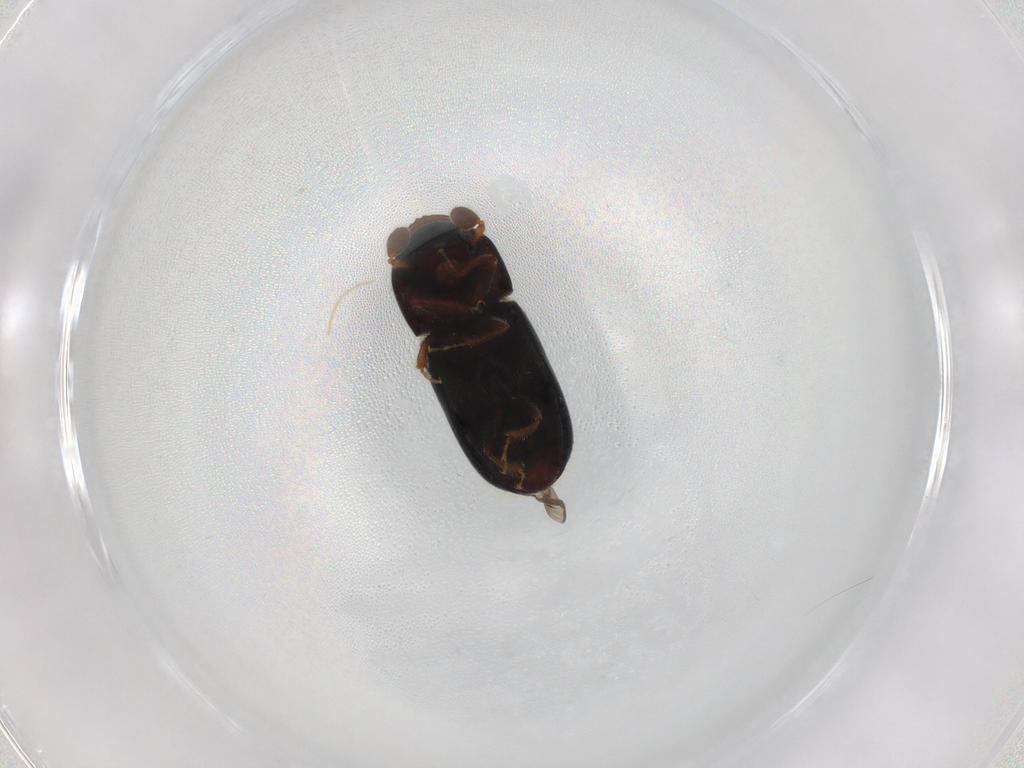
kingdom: Animalia
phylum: Arthropoda
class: Insecta
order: Coleoptera
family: Curculionidae
